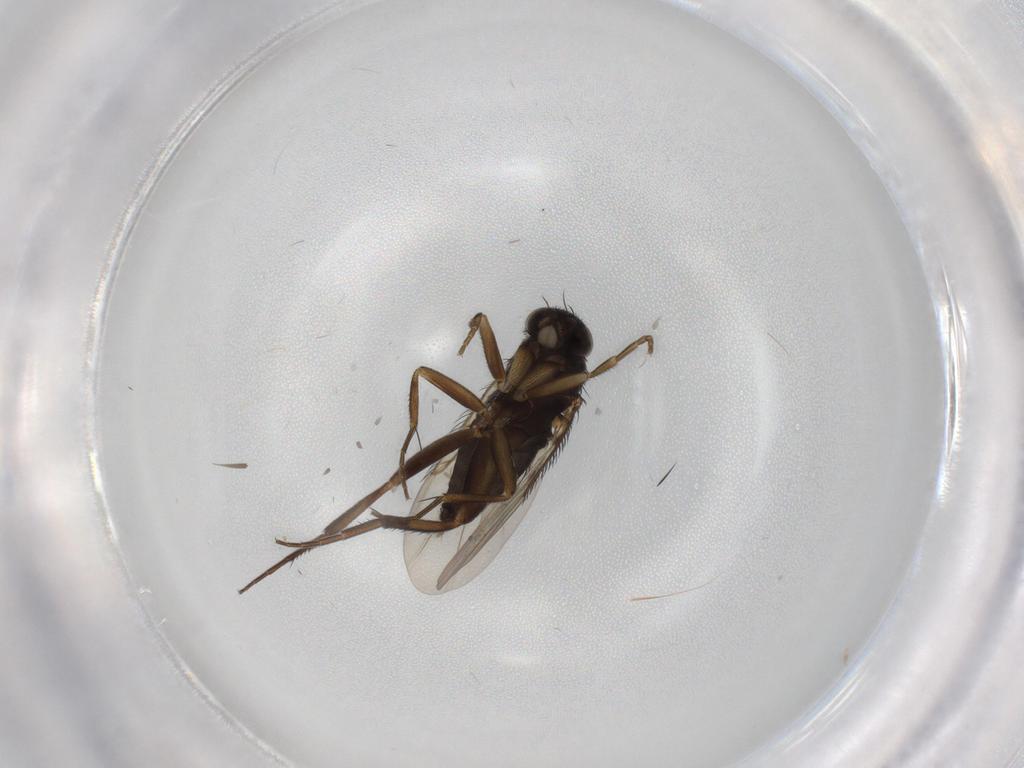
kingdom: Animalia
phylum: Arthropoda
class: Insecta
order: Diptera
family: Phoridae
